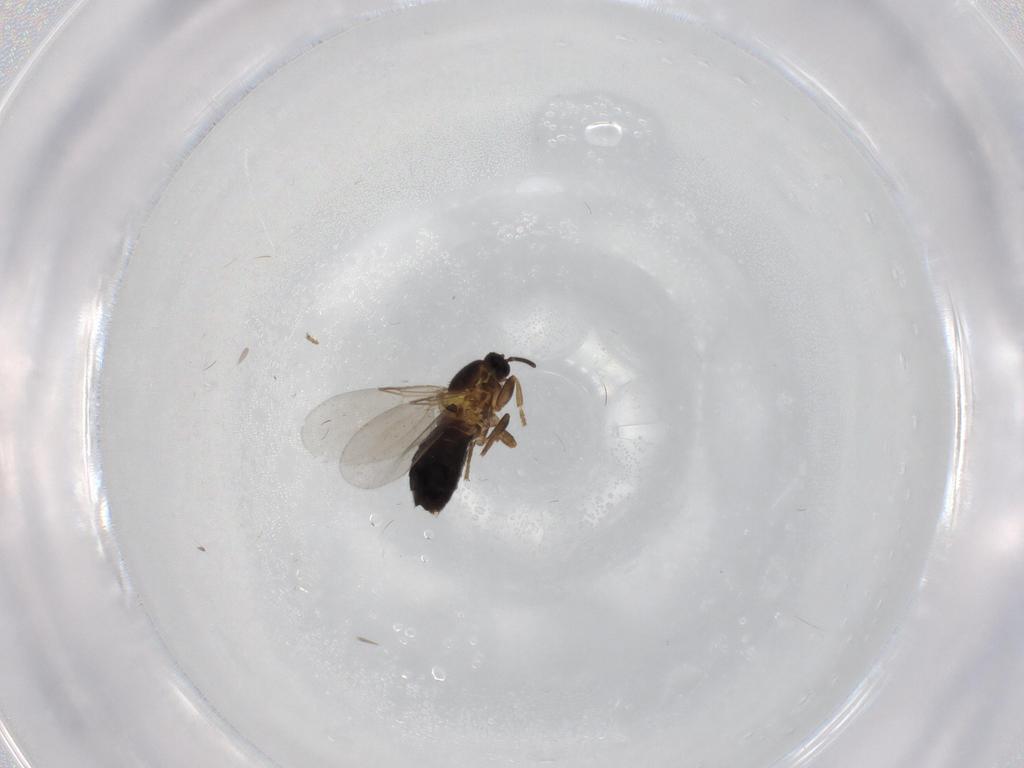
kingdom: Animalia
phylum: Arthropoda
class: Insecta
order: Diptera
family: Scatopsidae
